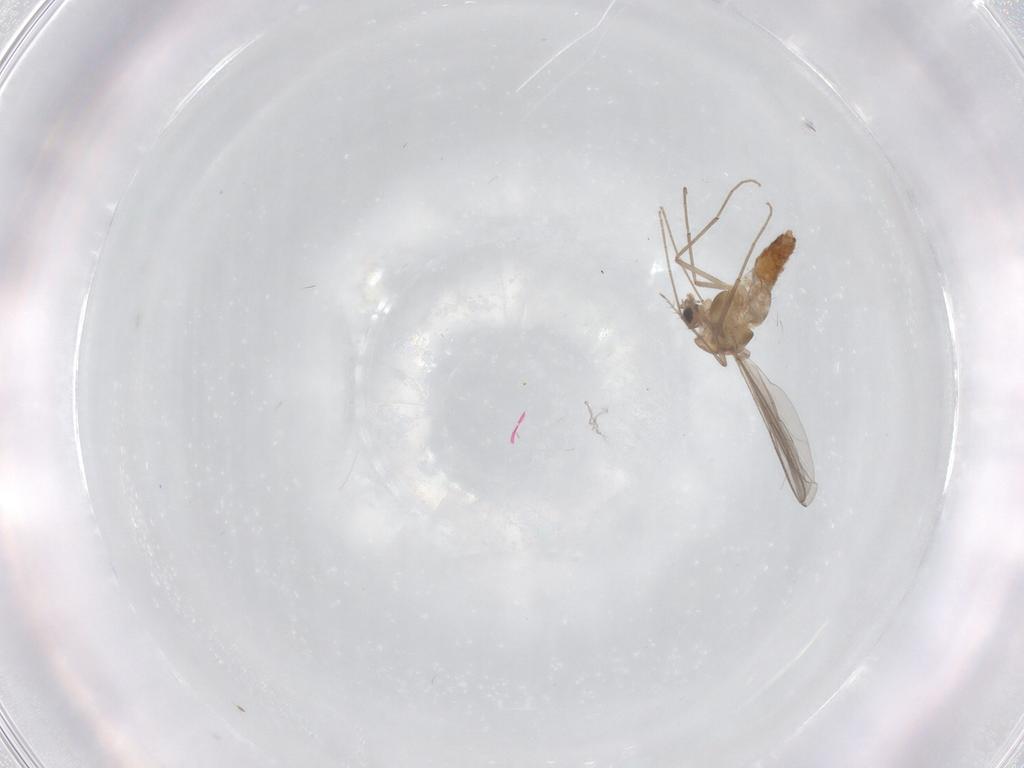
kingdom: Animalia
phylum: Arthropoda
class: Insecta
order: Diptera
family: Chironomidae
